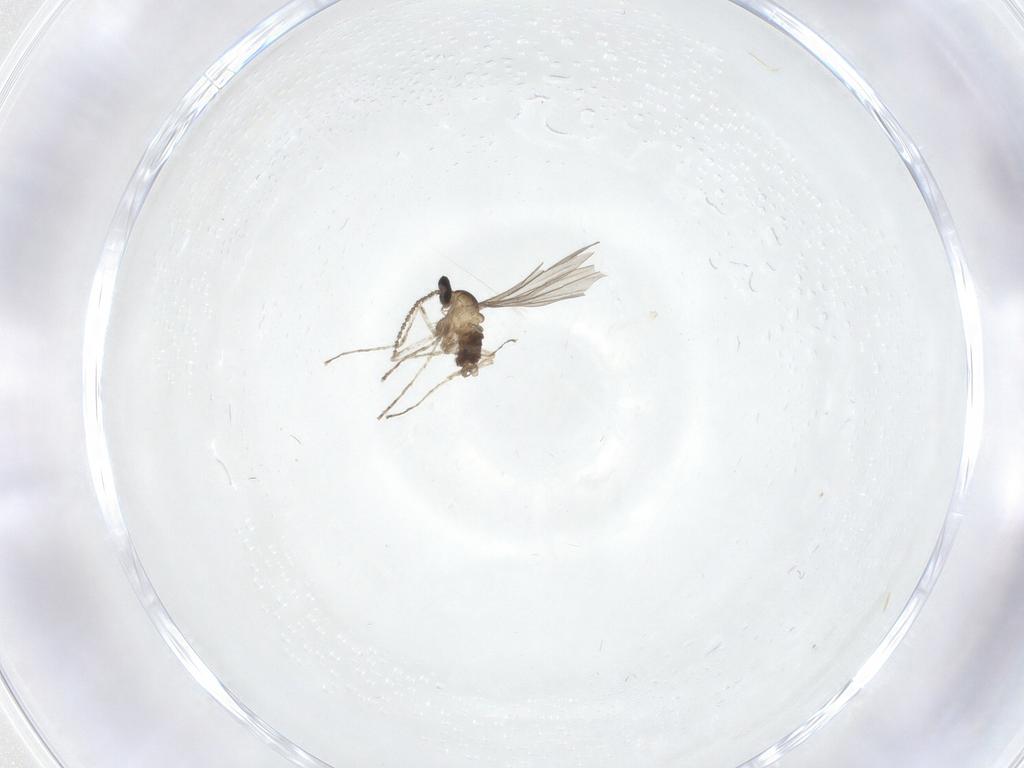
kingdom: Animalia
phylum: Arthropoda
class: Insecta
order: Diptera
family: Cecidomyiidae
